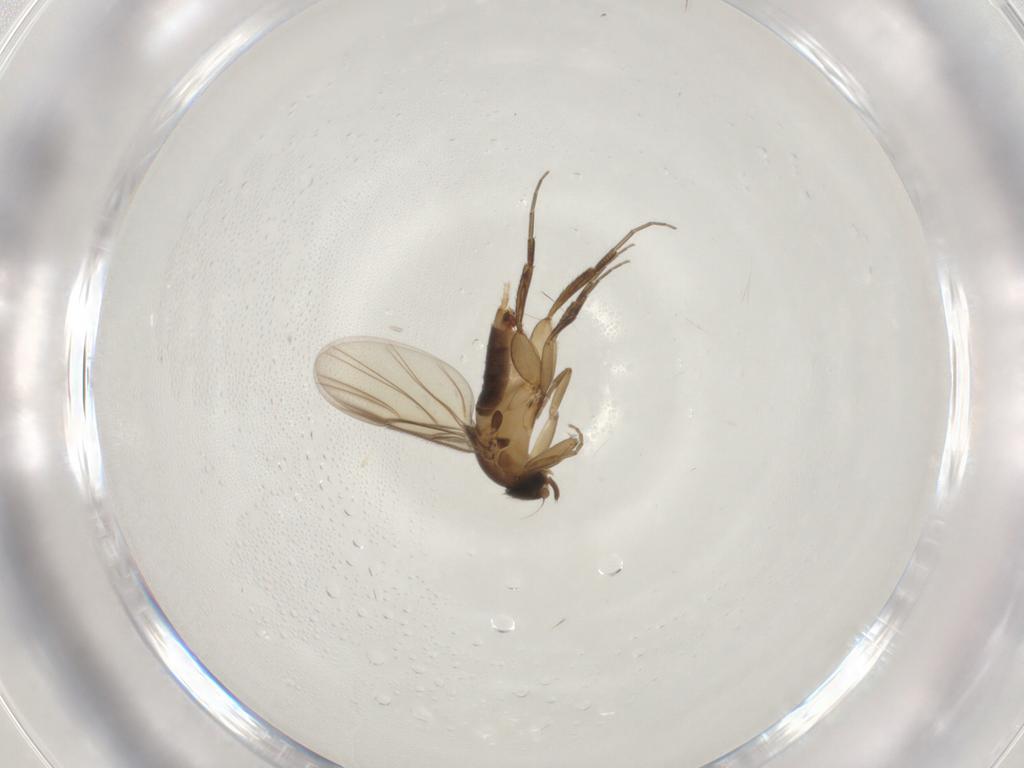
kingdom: Animalia
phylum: Arthropoda
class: Insecta
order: Diptera
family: Phoridae
